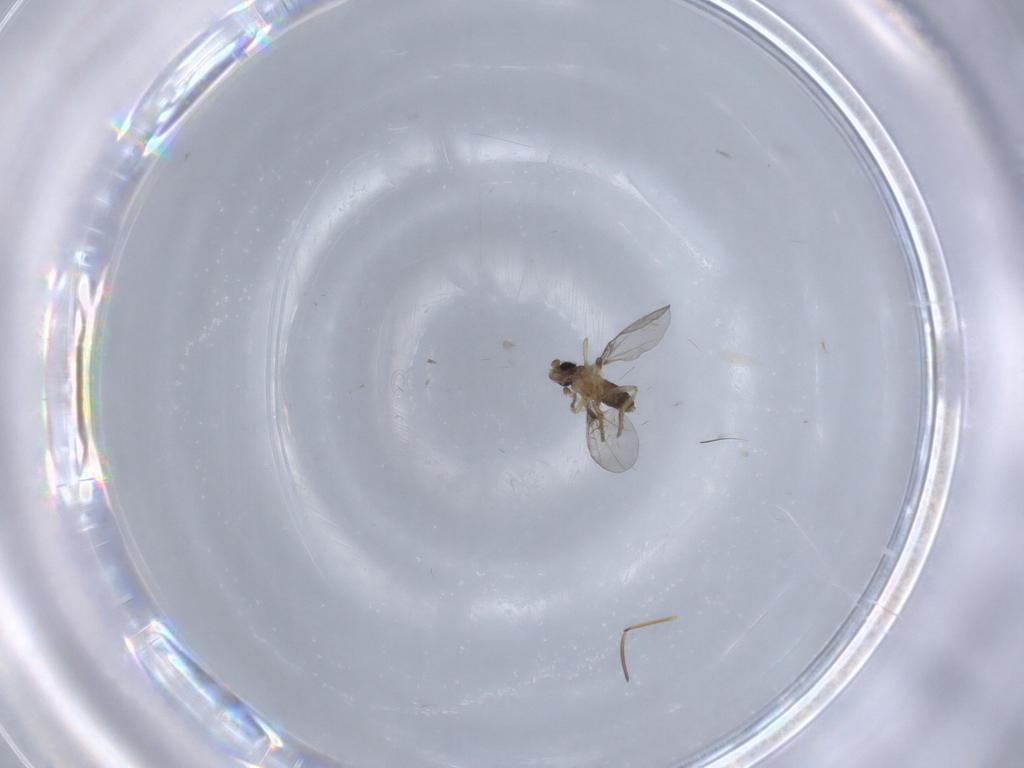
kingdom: Animalia
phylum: Arthropoda
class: Insecta
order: Diptera
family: Phoridae
